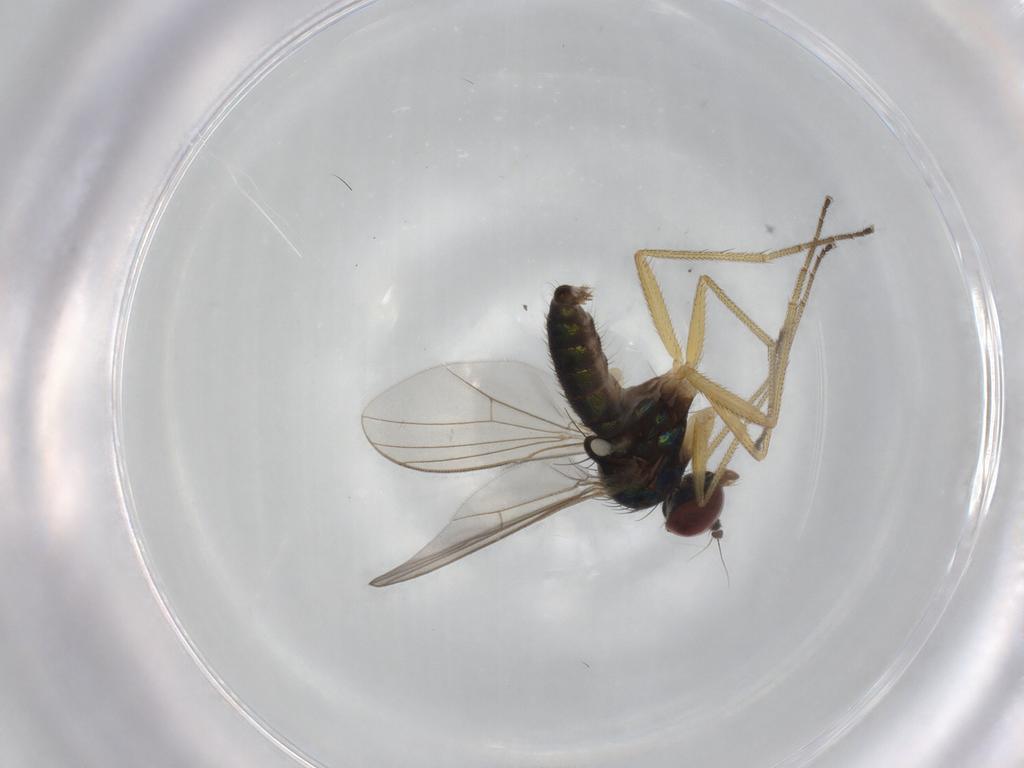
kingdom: Animalia
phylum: Arthropoda
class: Insecta
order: Diptera
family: Dolichopodidae
